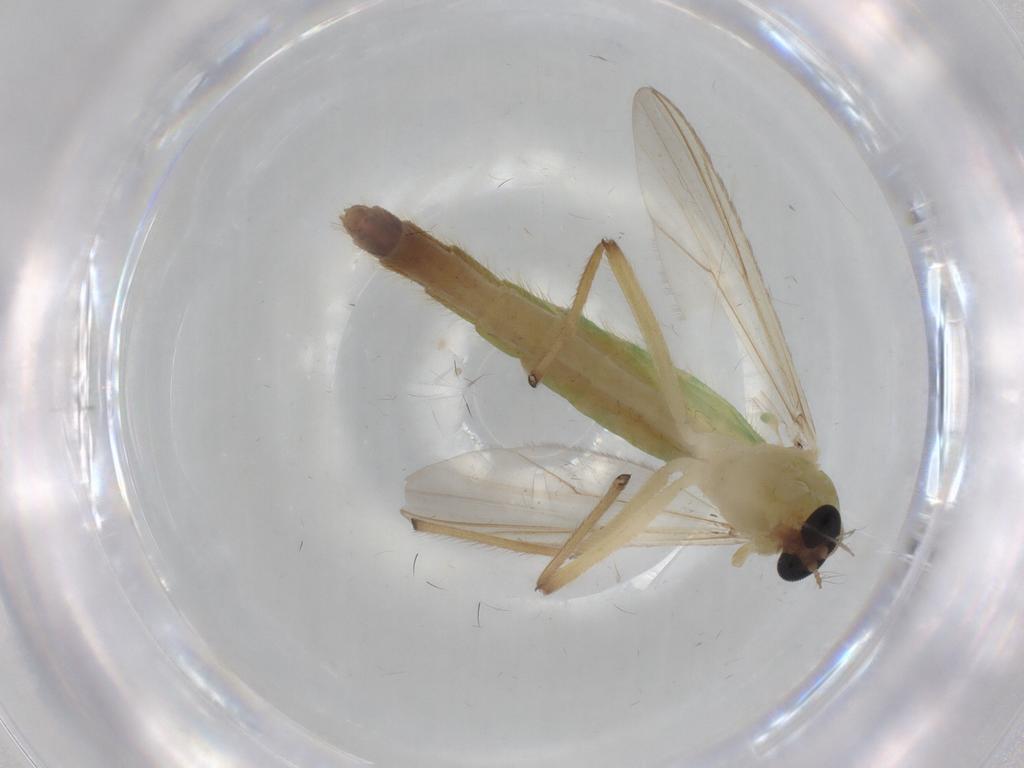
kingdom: Animalia
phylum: Arthropoda
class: Insecta
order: Diptera
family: Chironomidae
